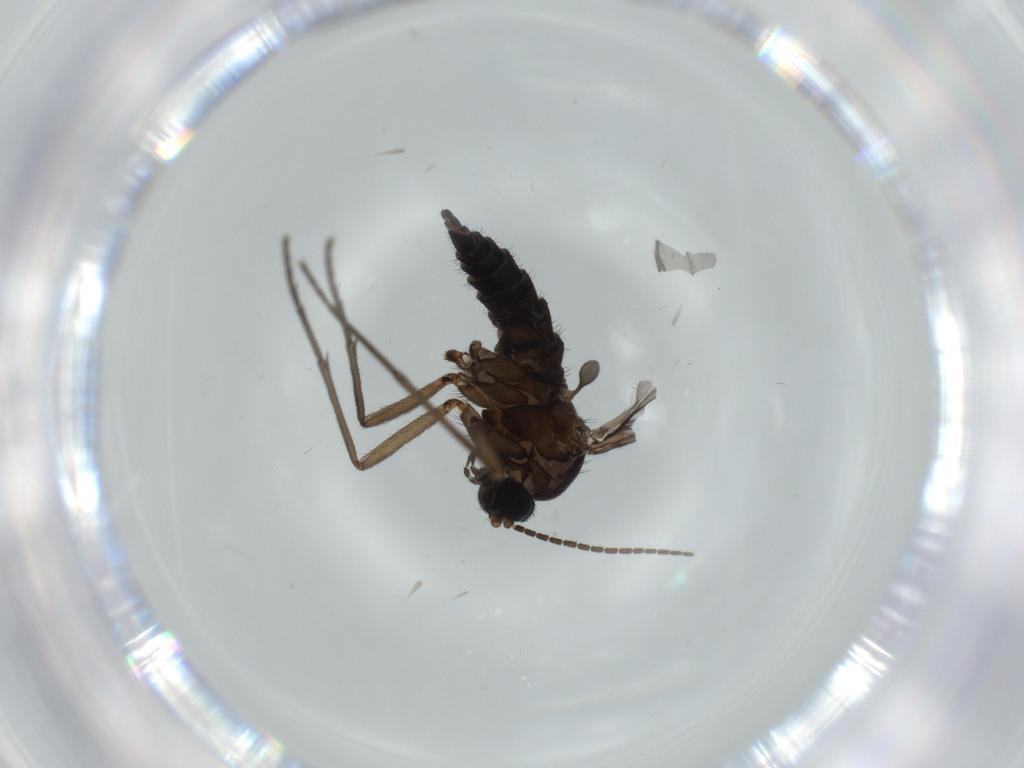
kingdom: Animalia
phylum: Arthropoda
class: Insecta
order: Diptera
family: Sciaridae
